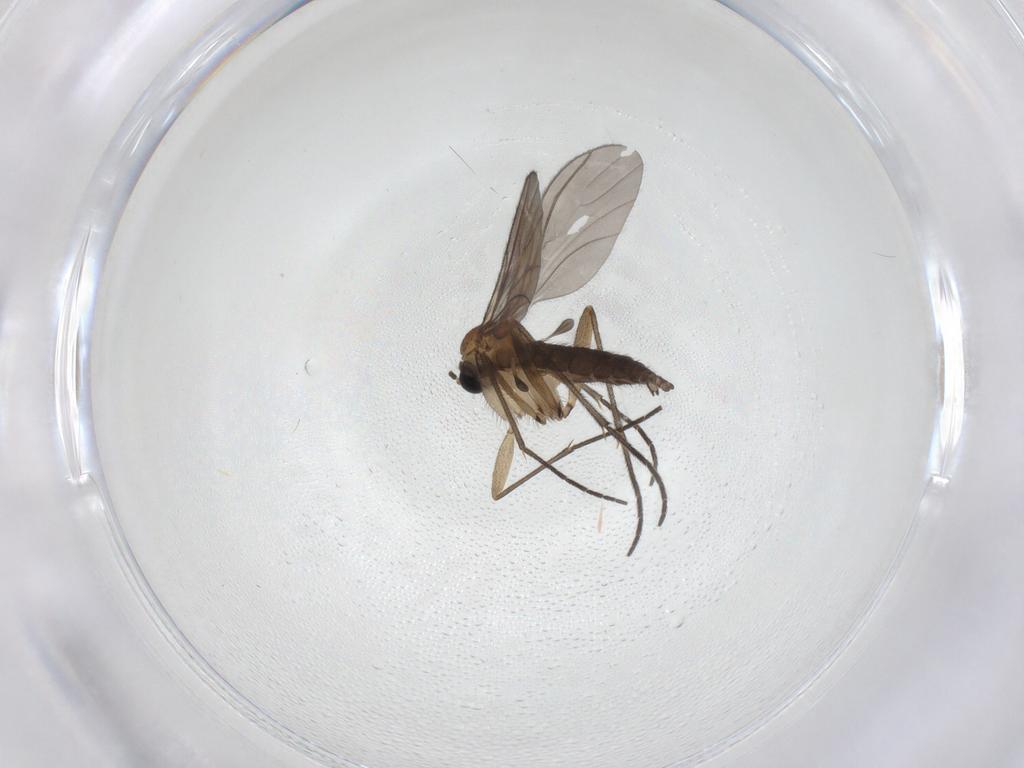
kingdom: Animalia
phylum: Arthropoda
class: Insecta
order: Diptera
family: Sciaridae
